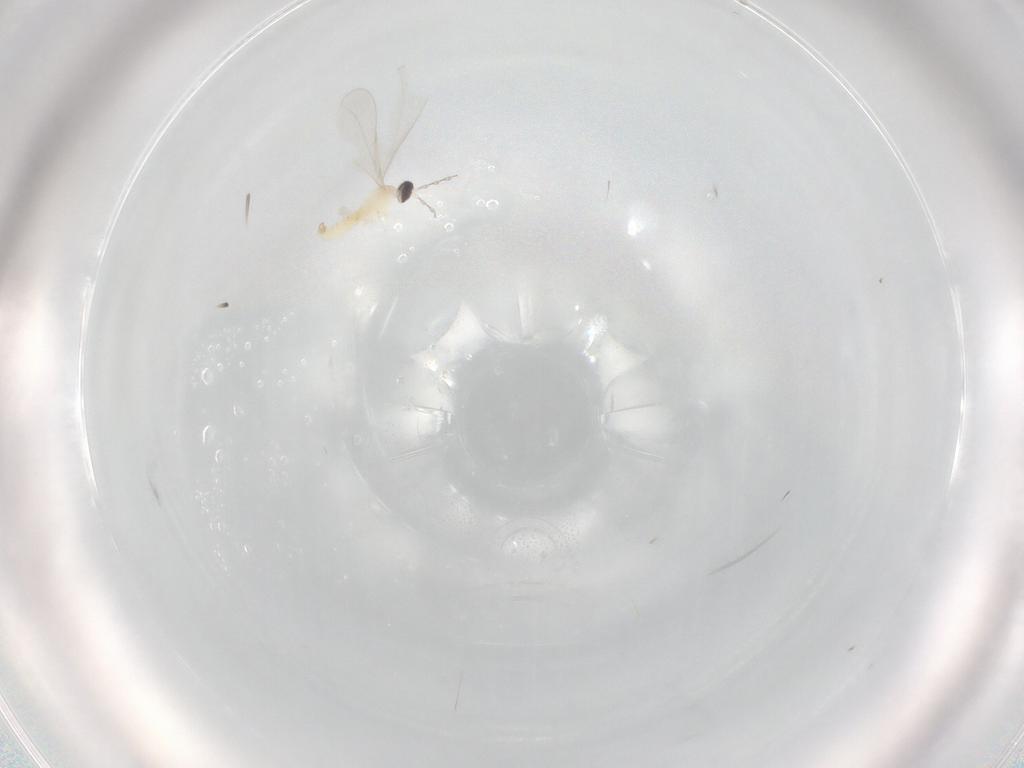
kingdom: Animalia
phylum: Arthropoda
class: Insecta
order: Diptera
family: Cecidomyiidae
